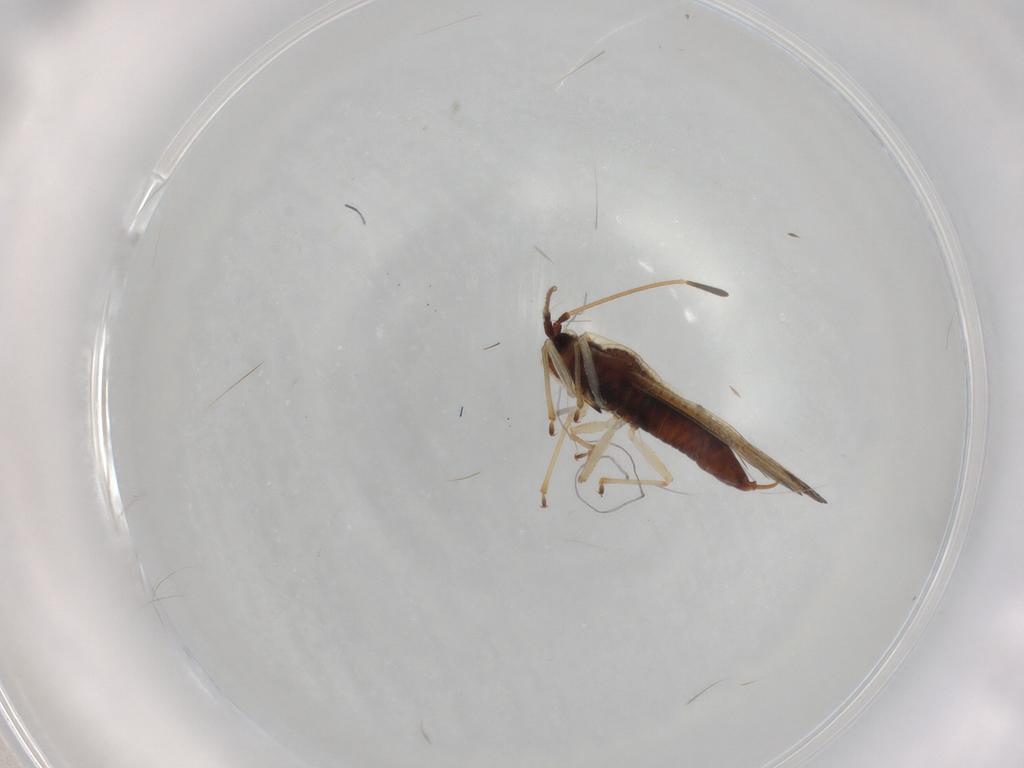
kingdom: Animalia
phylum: Arthropoda
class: Insecta
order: Hemiptera
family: Tingidae
